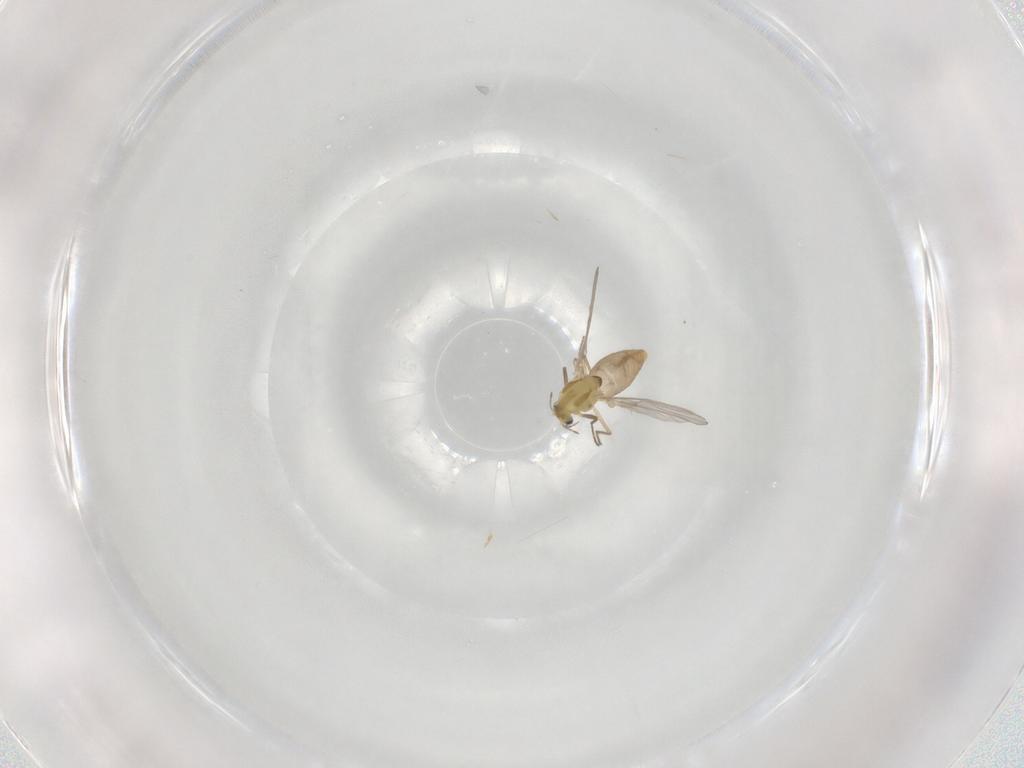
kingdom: Animalia
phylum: Arthropoda
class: Insecta
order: Diptera
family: Chironomidae
